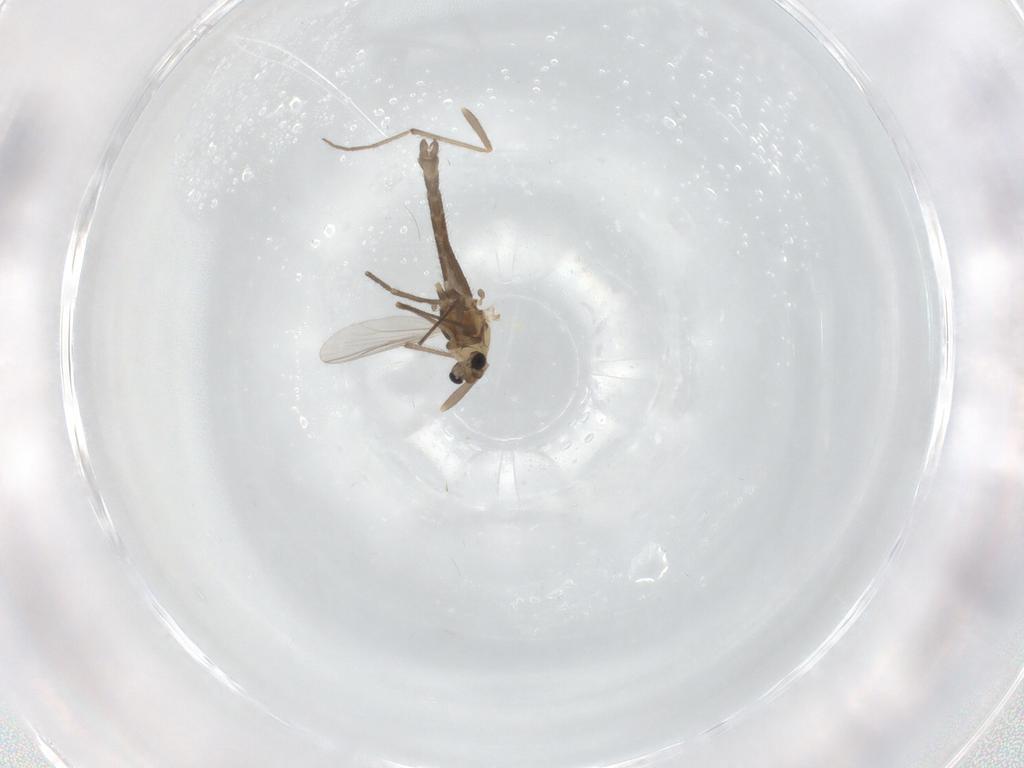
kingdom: Animalia
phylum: Arthropoda
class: Insecta
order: Diptera
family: Chironomidae
